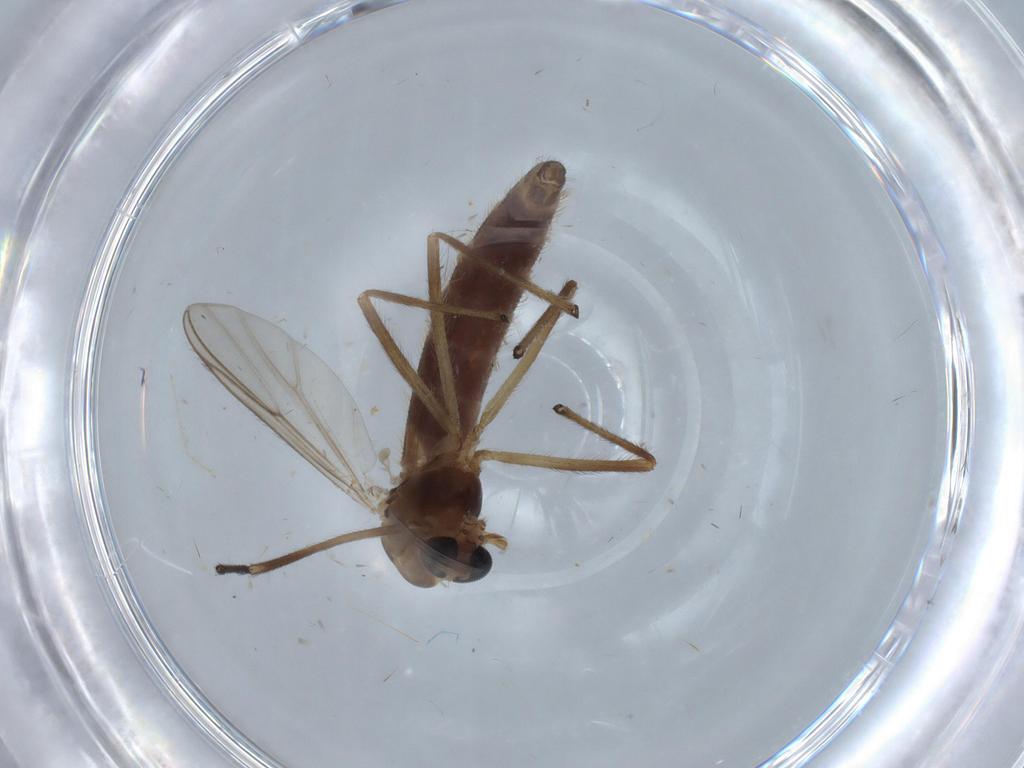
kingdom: Animalia
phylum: Arthropoda
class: Insecta
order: Diptera
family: Chironomidae
